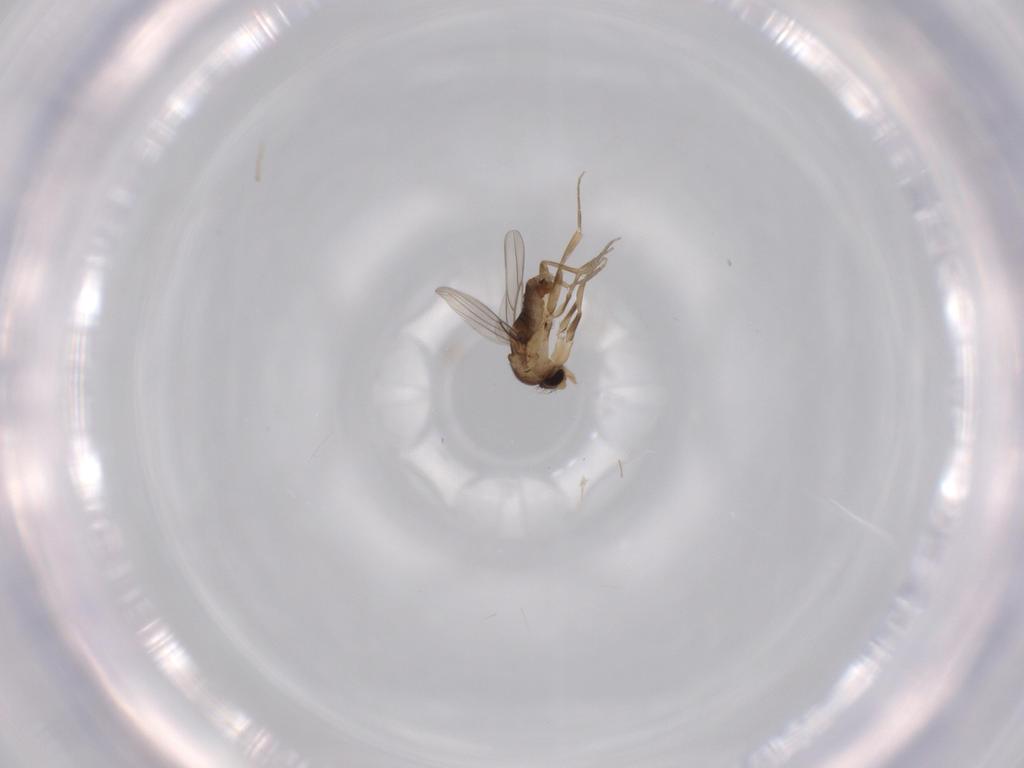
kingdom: Animalia
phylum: Arthropoda
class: Insecta
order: Diptera
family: Phoridae
